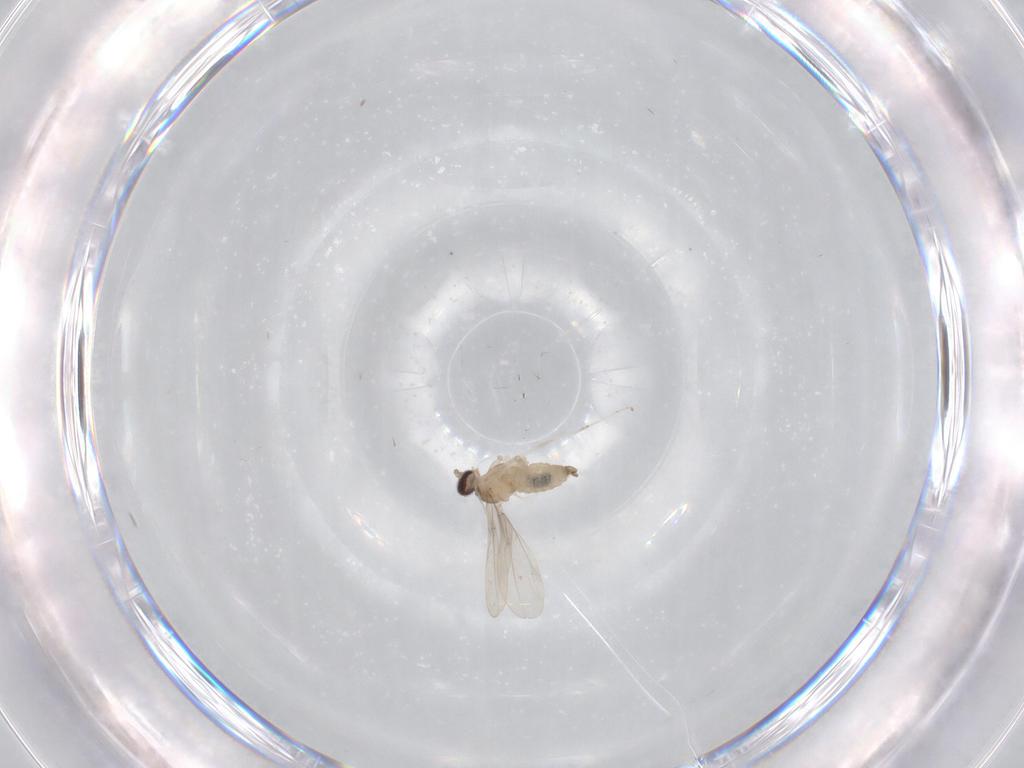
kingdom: Animalia
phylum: Arthropoda
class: Insecta
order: Diptera
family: Cecidomyiidae
